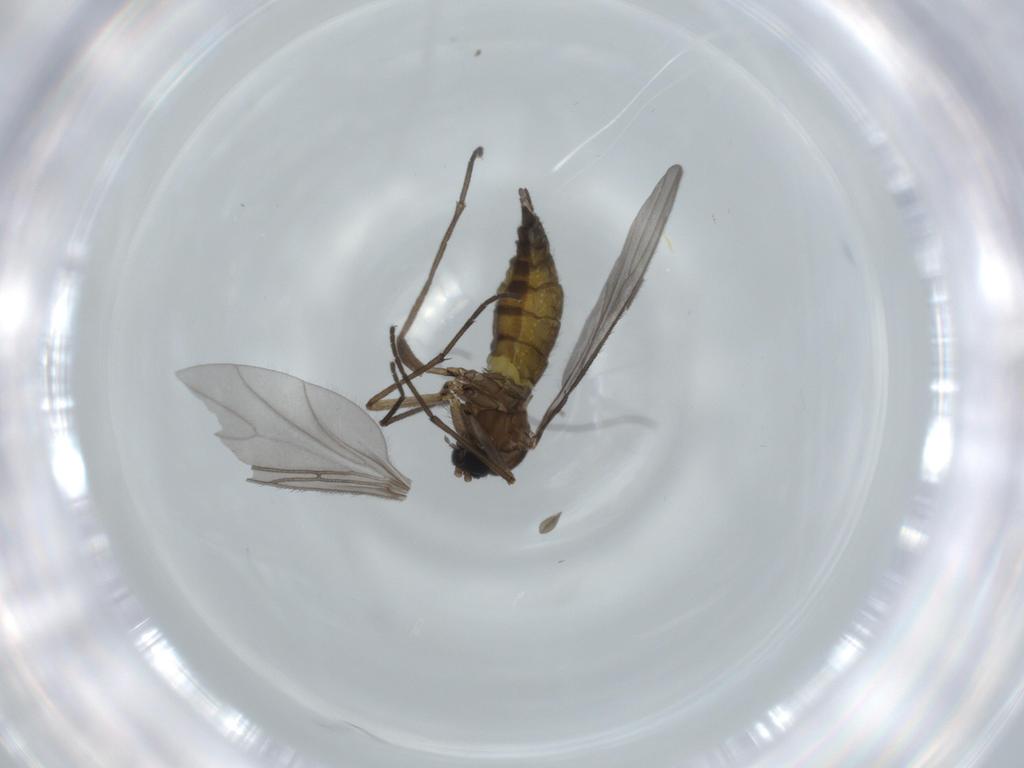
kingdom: Animalia
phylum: Arthropoda
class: Insecta
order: Diptera
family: Sciaridae
